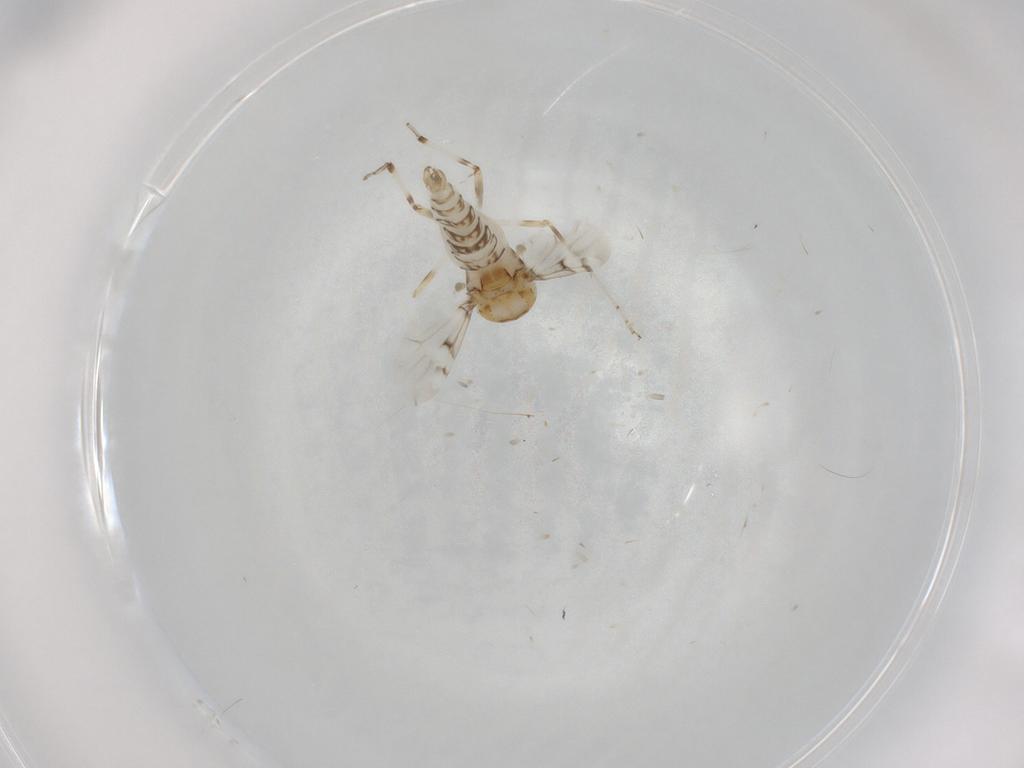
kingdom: Animalia
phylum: Arthropoda
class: Insecta
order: Diptera
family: Ceratopogonidae
